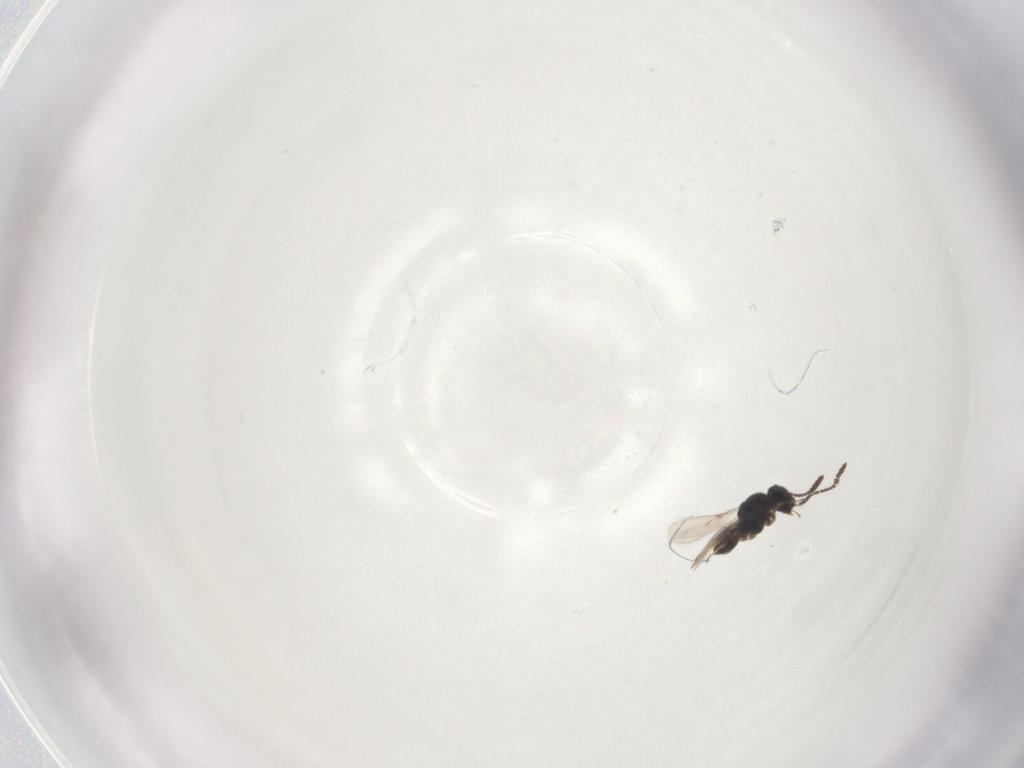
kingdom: Animalia
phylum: Arthropoda
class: Insecta
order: Hymenoptera
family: Scelionidae
